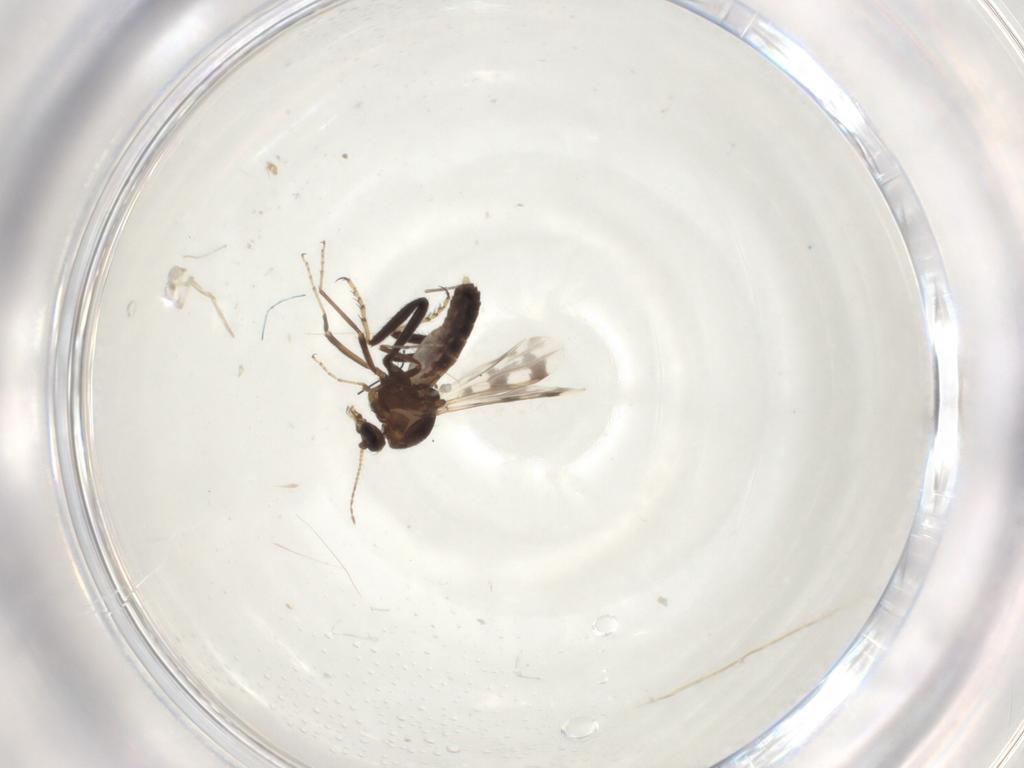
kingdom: Animalia
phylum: Arthropoda
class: Insecta
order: Diptera
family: Ceratopogonidae
